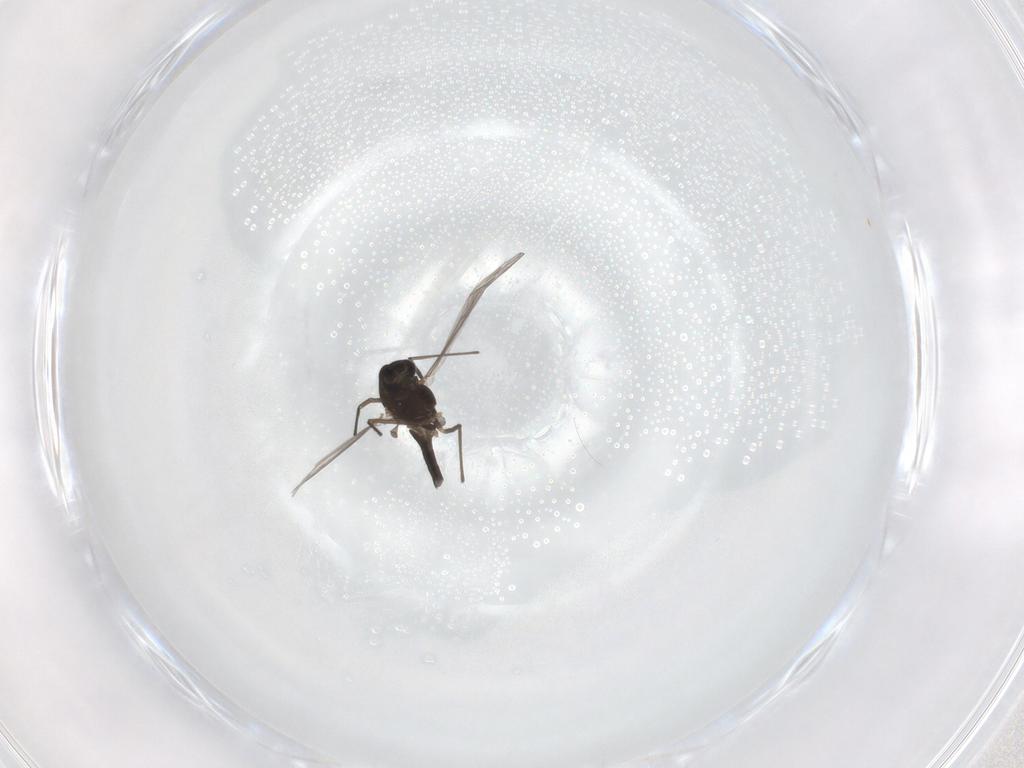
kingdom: Animalia
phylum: Arthropoda
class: Insecta
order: Diptera
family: Chironomidae
